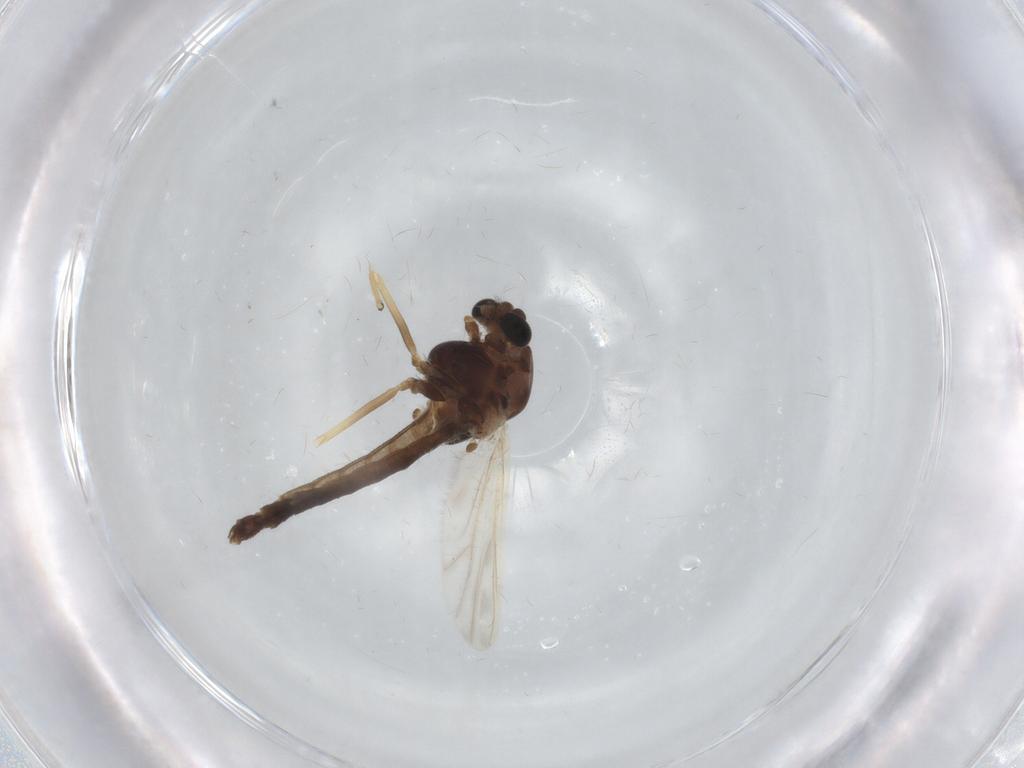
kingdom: Animalia
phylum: Arthropoda
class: Insecta
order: Diptera
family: Chironomidae
